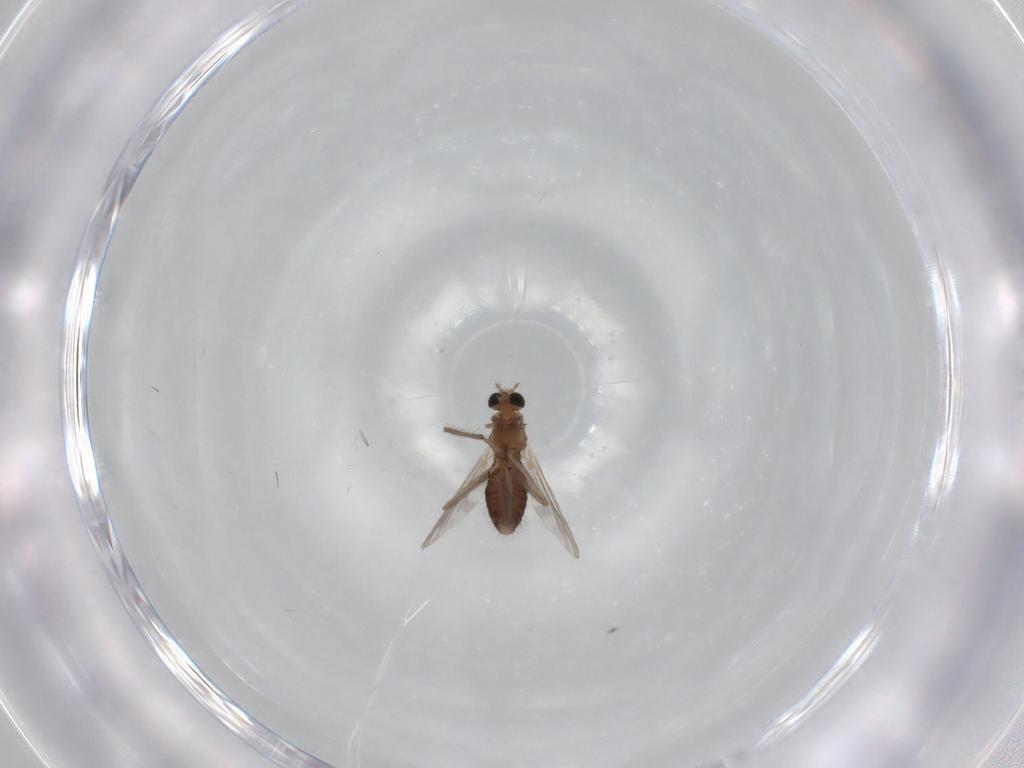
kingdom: Animalia
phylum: Arthropoda
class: Insecta
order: Diptera
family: Chironomidae
